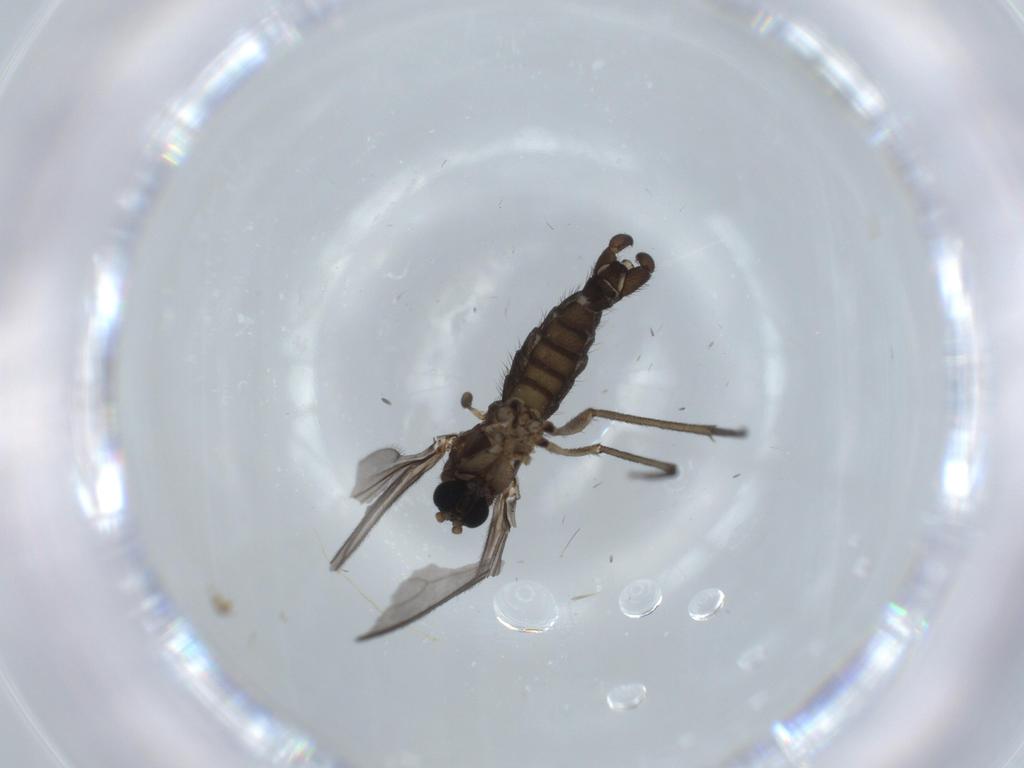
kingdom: Animalia
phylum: Arthropoda
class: Insecta
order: Diptera
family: Sciaridae
